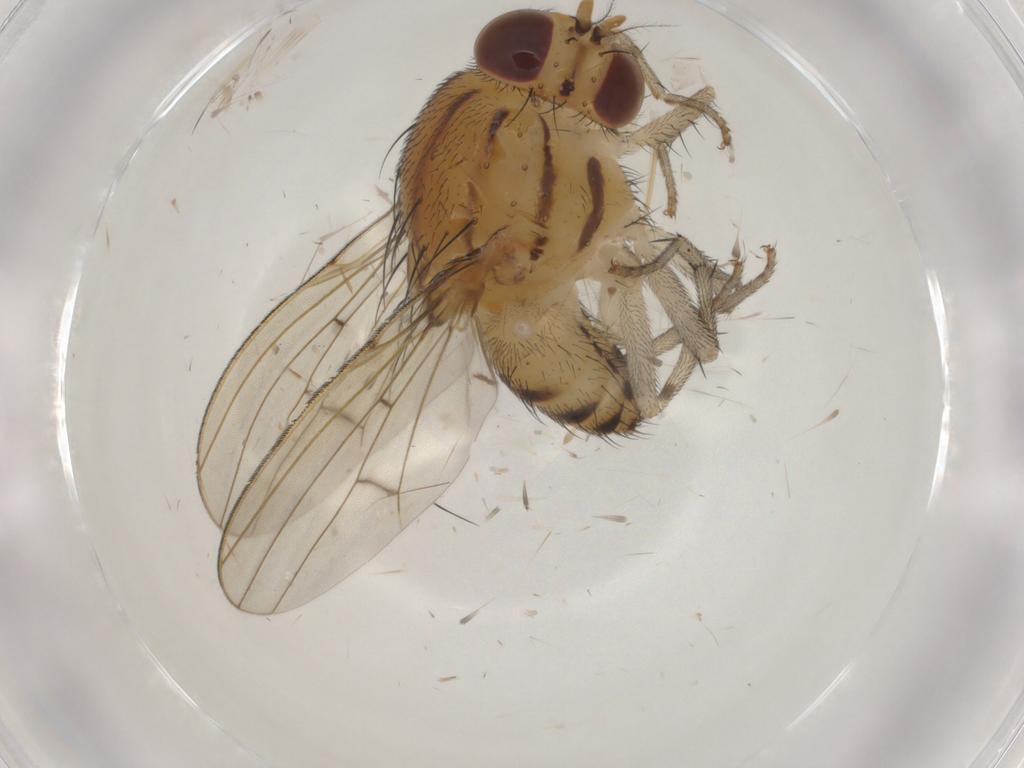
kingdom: Animalia
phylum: Arthropoda
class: Insecta
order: Diptera
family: Lauxaniidae
